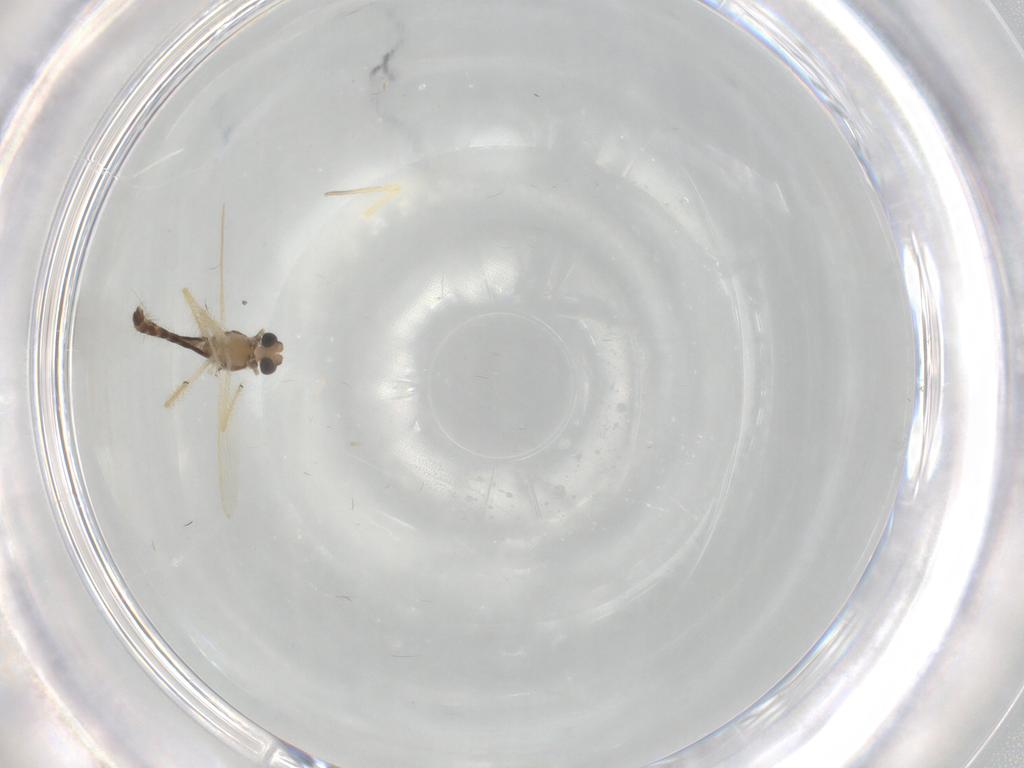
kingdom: Animalia
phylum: Arthropoda
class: Insecta
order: Diptera
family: Chironomidae
